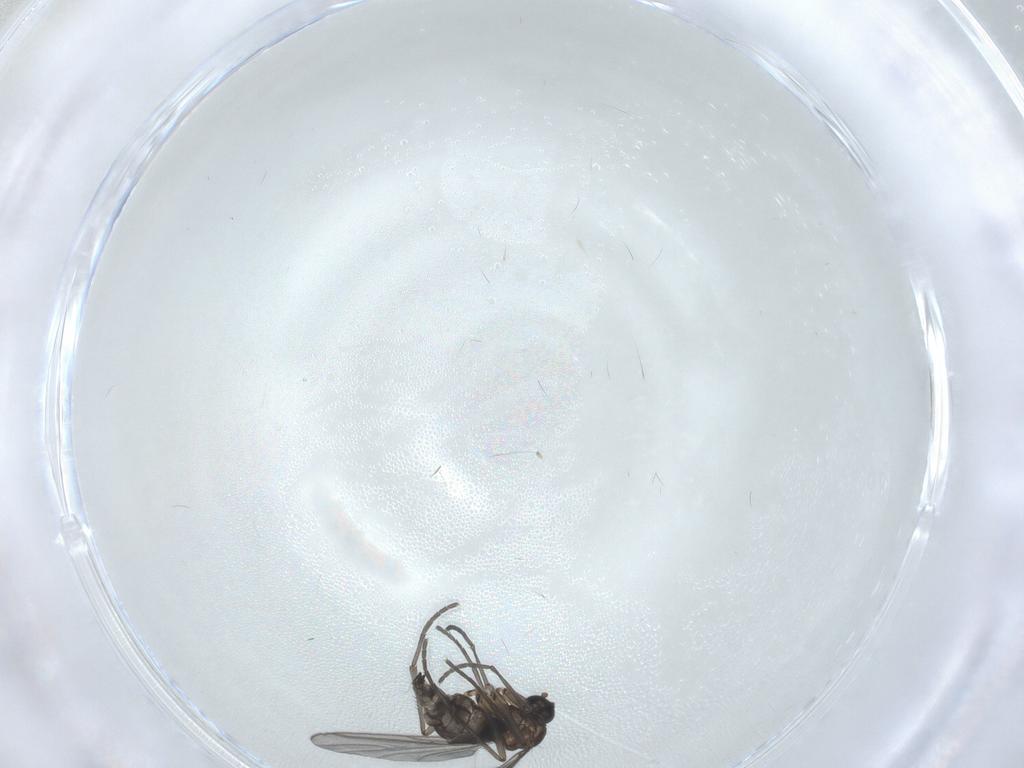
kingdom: Animalia
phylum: Arthropoda
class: Insecta
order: Diptera
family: Sciaridae
